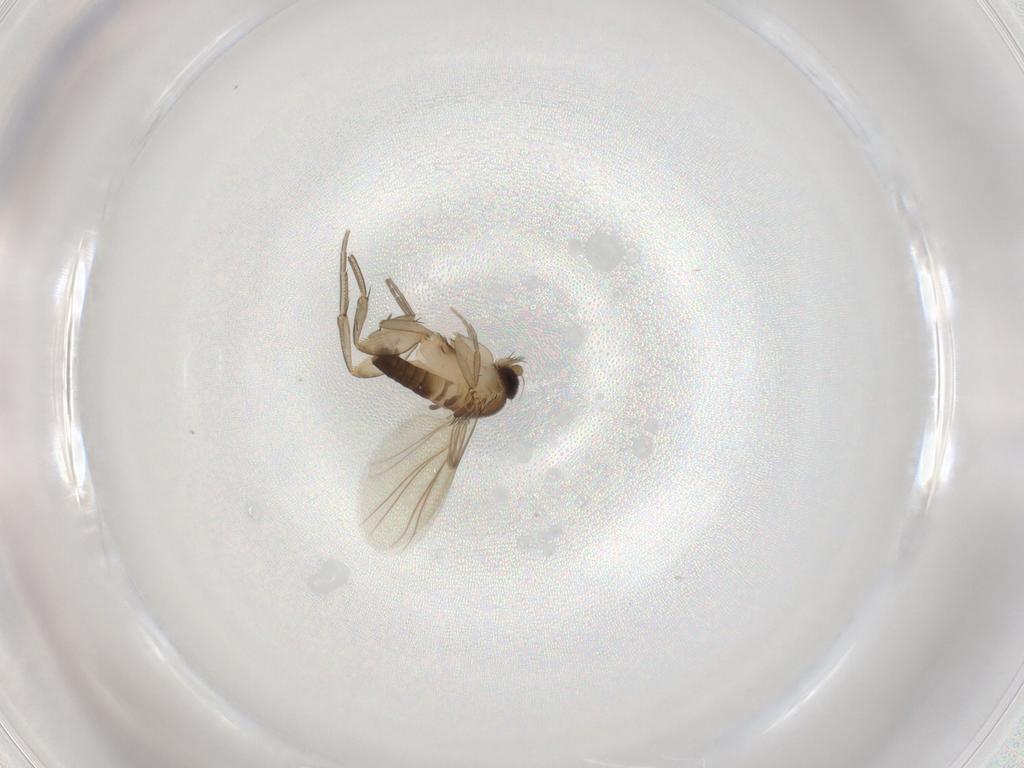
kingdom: Animalia
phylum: Arthropoda
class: Insecta
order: Diptera
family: Phoridae
